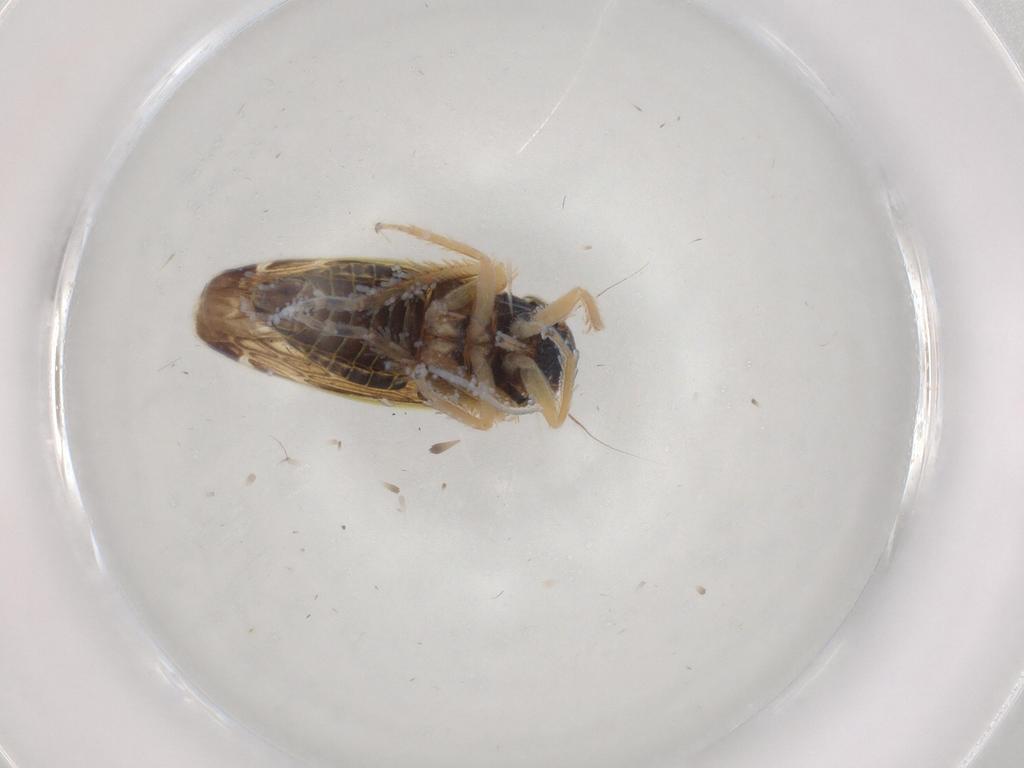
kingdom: Animalia
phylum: Arthropoda
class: Insecta
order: Hemiptera
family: Cicadellidae
